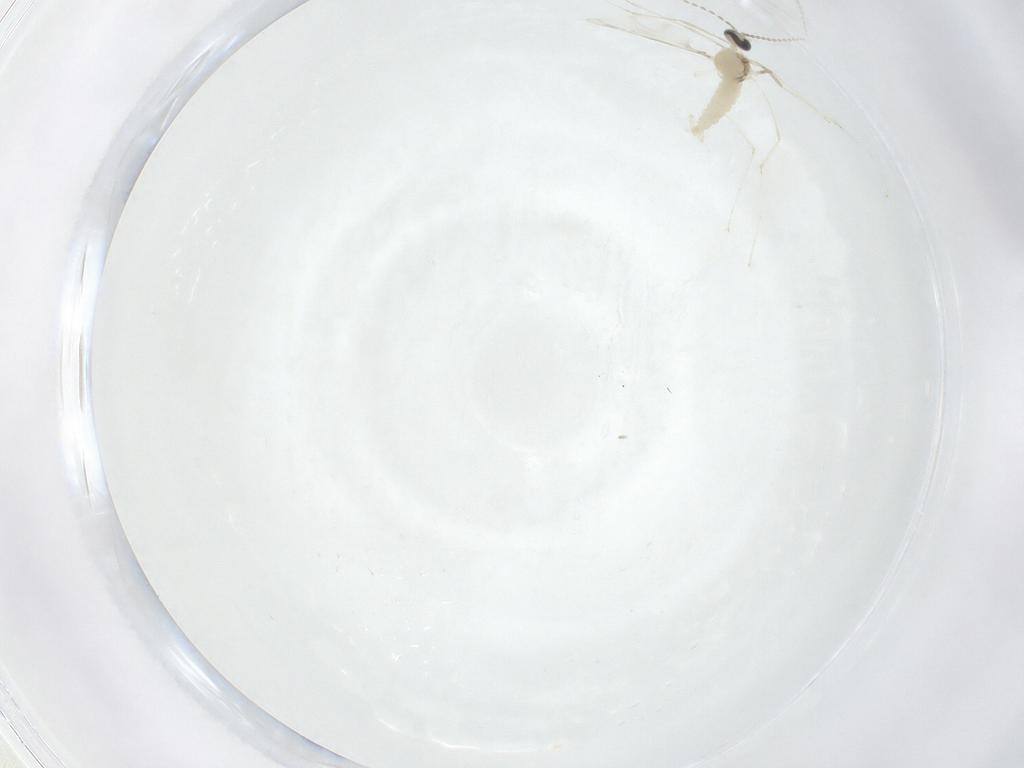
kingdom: Animalia
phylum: Arthropoda
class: Insecta
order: Diptera
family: Cecidomyiidae
